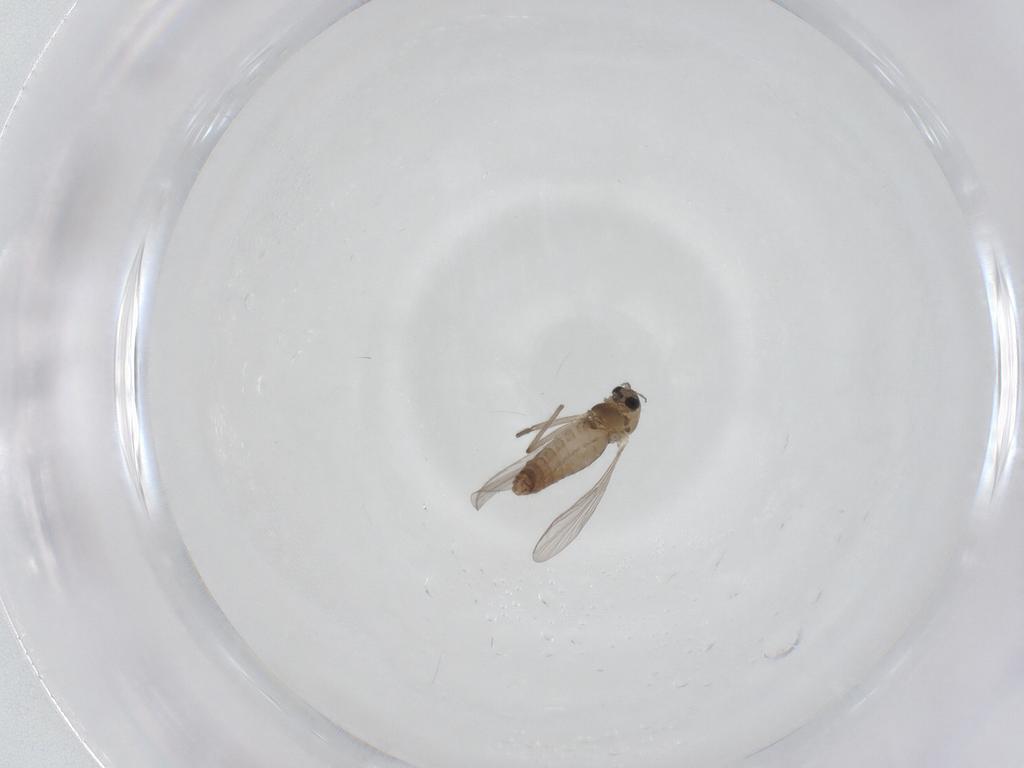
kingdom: Animalia
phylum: Arthropoda
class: Insecta
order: Diptera
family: Chironomidae
